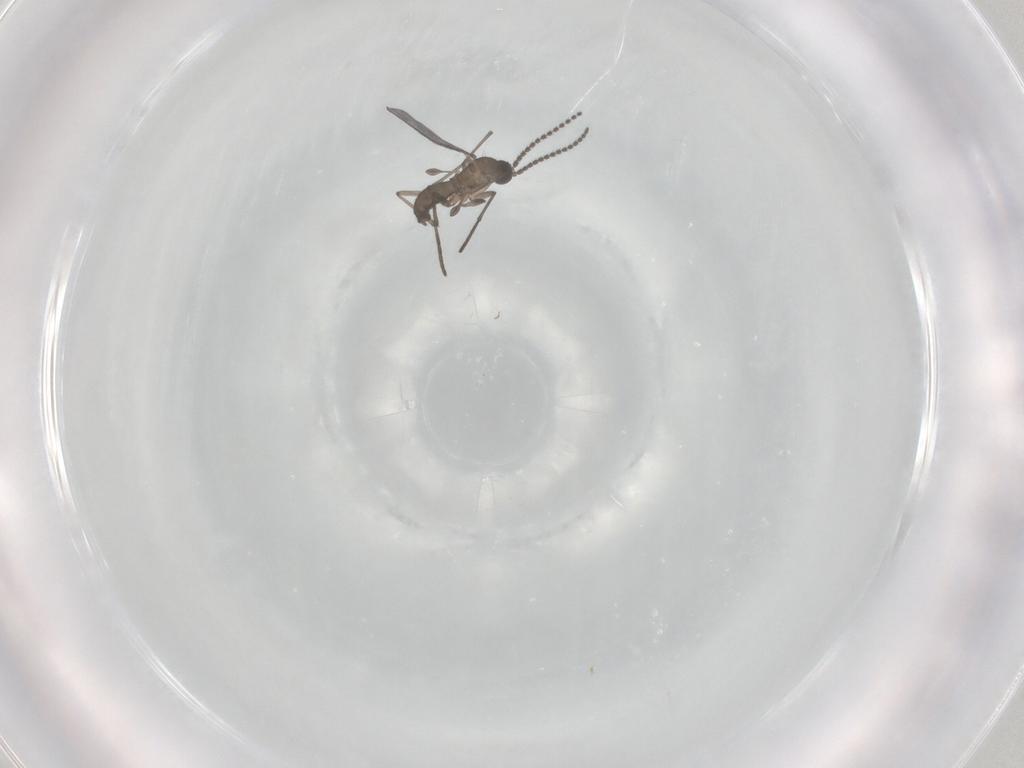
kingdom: Animalia
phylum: Arthropoda
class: Insecta
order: Diptera
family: Sciaridae
